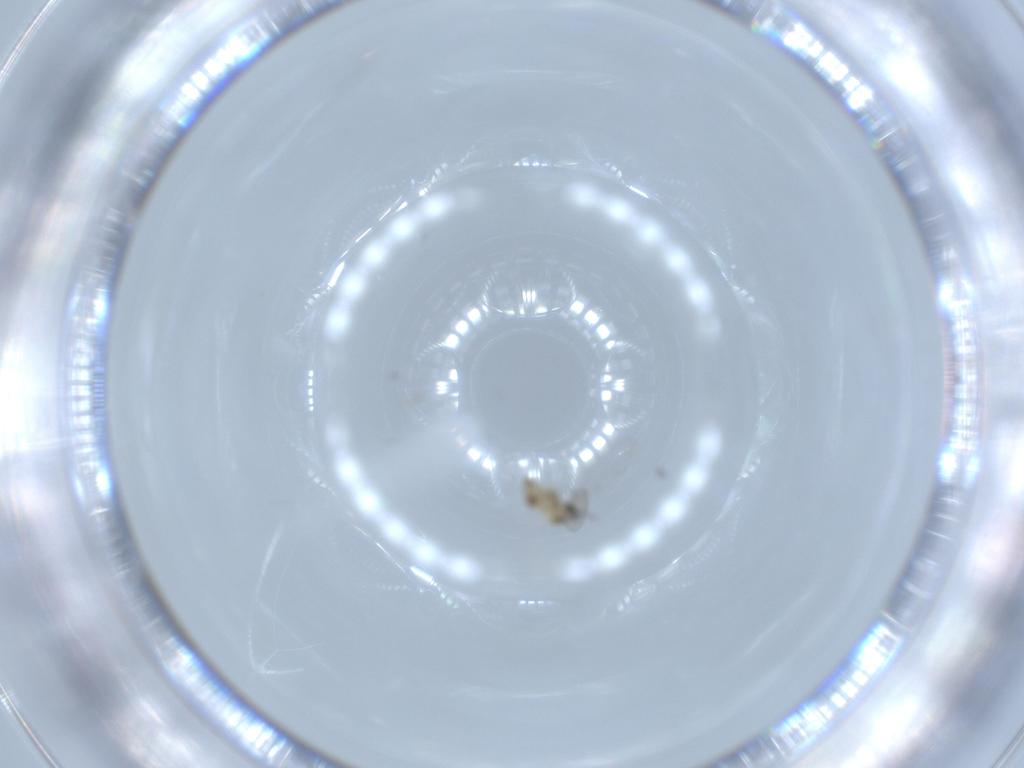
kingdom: Animalia
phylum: Arthropoda
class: Insecta
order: Diptera
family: Cecidomyiidae
